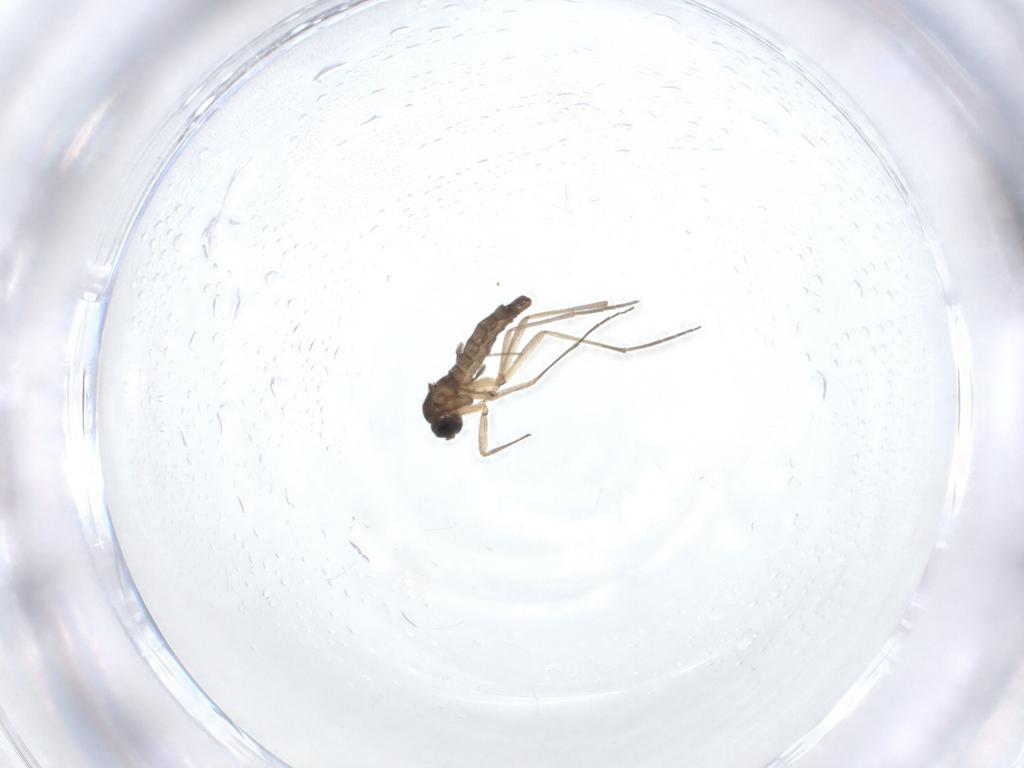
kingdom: Animalia
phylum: Arthropoda
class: Insecta
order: Diptera
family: Sciaridae
